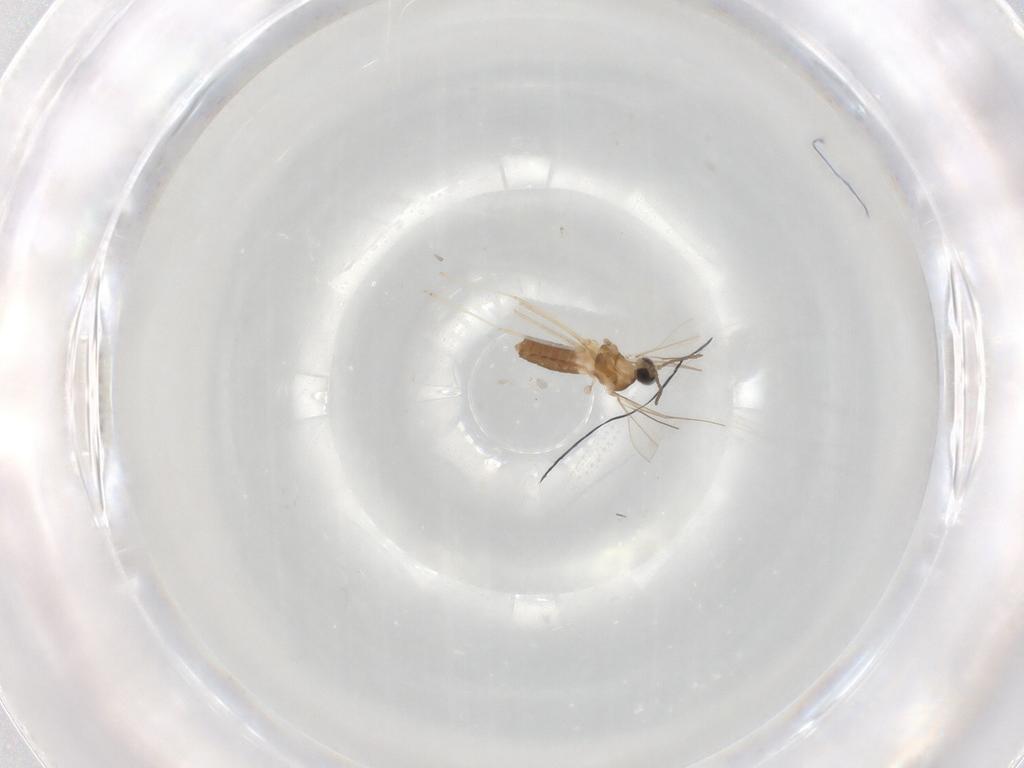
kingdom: Animalia
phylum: Arthropoda
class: Insecta
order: Diptera
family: Cecidomyiidae
